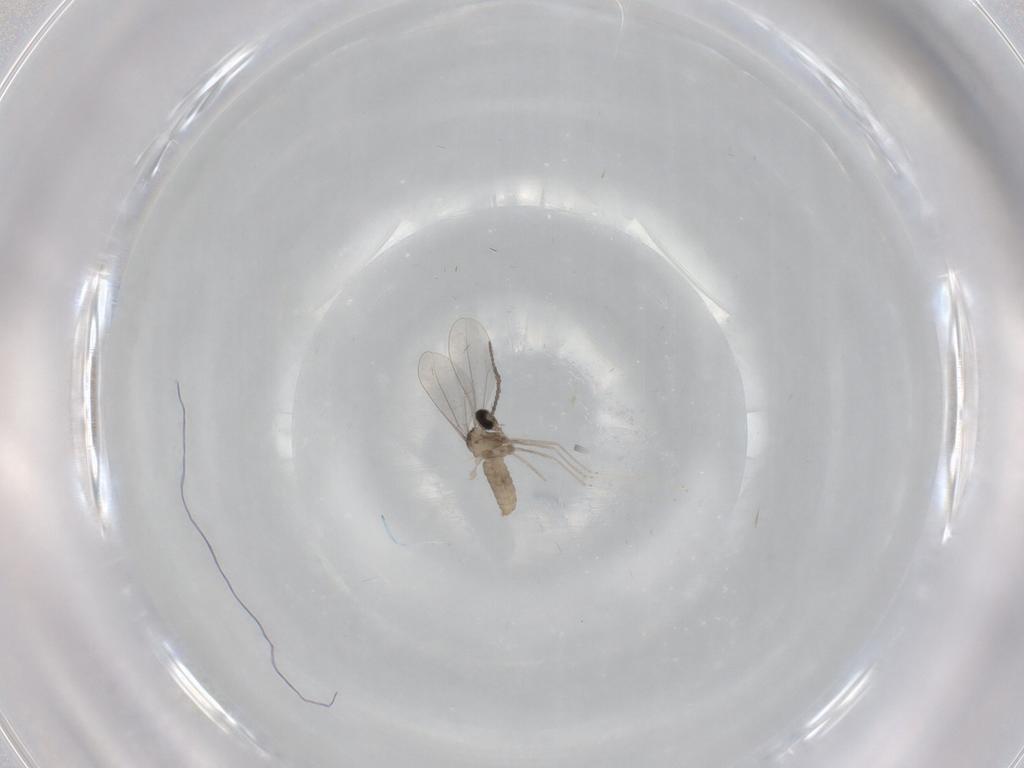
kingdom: Animalia
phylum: Arthropoda
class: Insecta
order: Diptera
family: Cecidomyiidae
